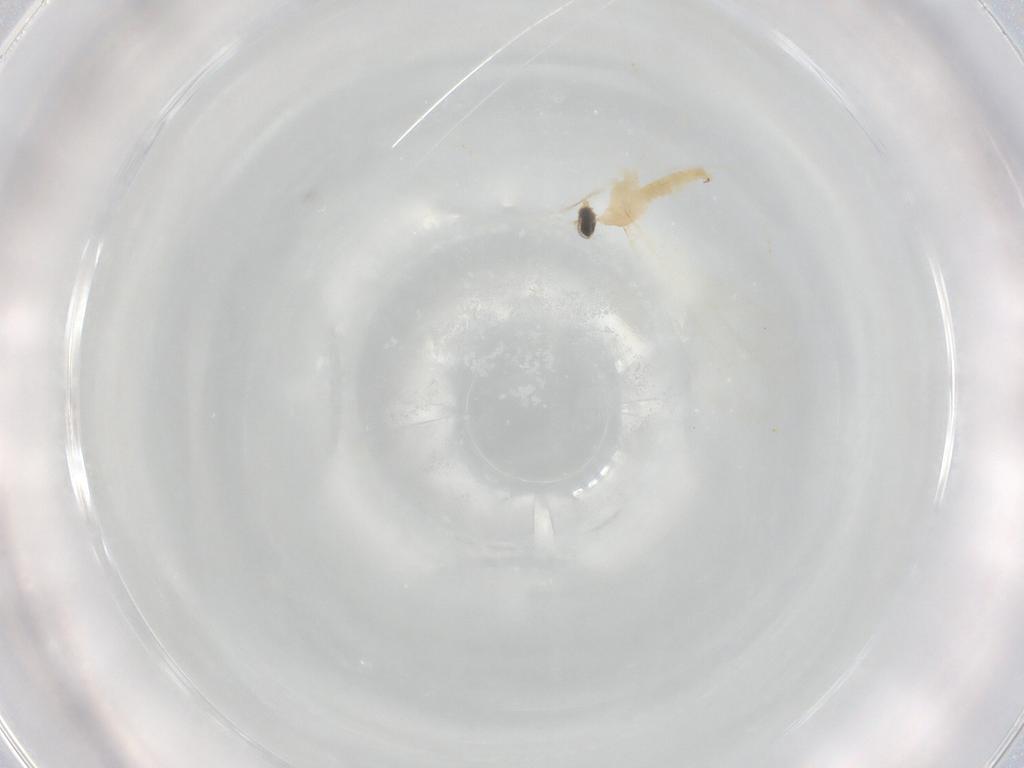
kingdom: Animalia
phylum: Arthropoda
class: Insecta
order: Diptera
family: Cecidomyiidae
